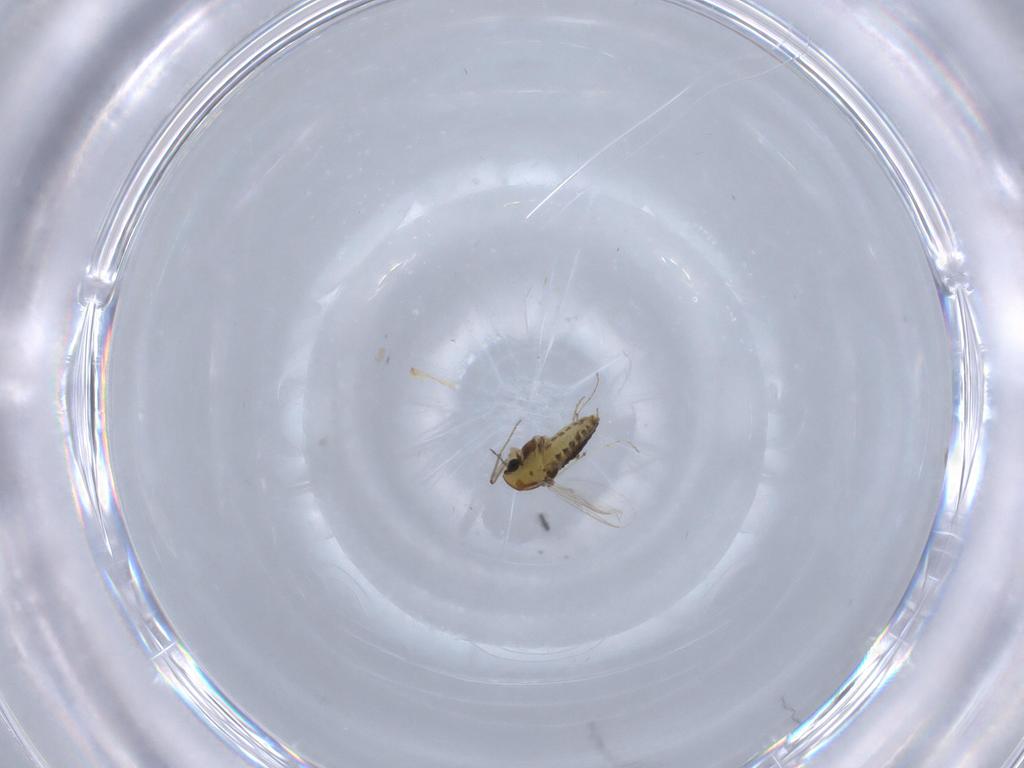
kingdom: Animalia
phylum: Arthropoda
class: Insecta
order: Diptera
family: Chironomidae
